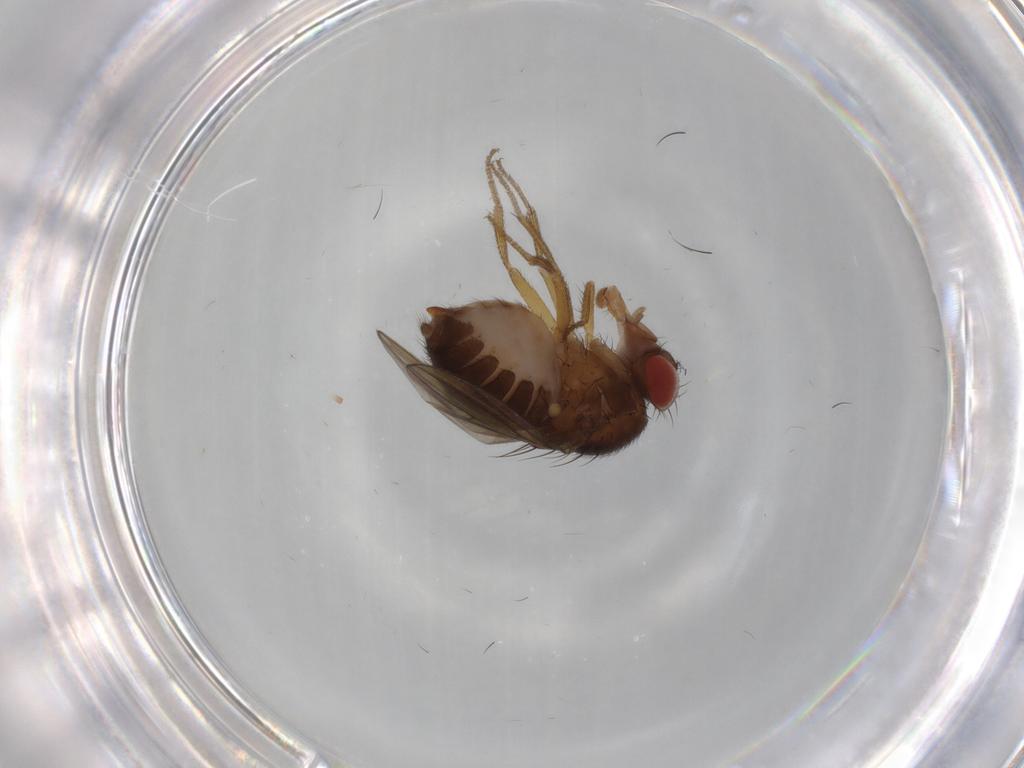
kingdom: Animalia
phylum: Arthropoda
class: Insecta
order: Diptera
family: Drosophilidae
